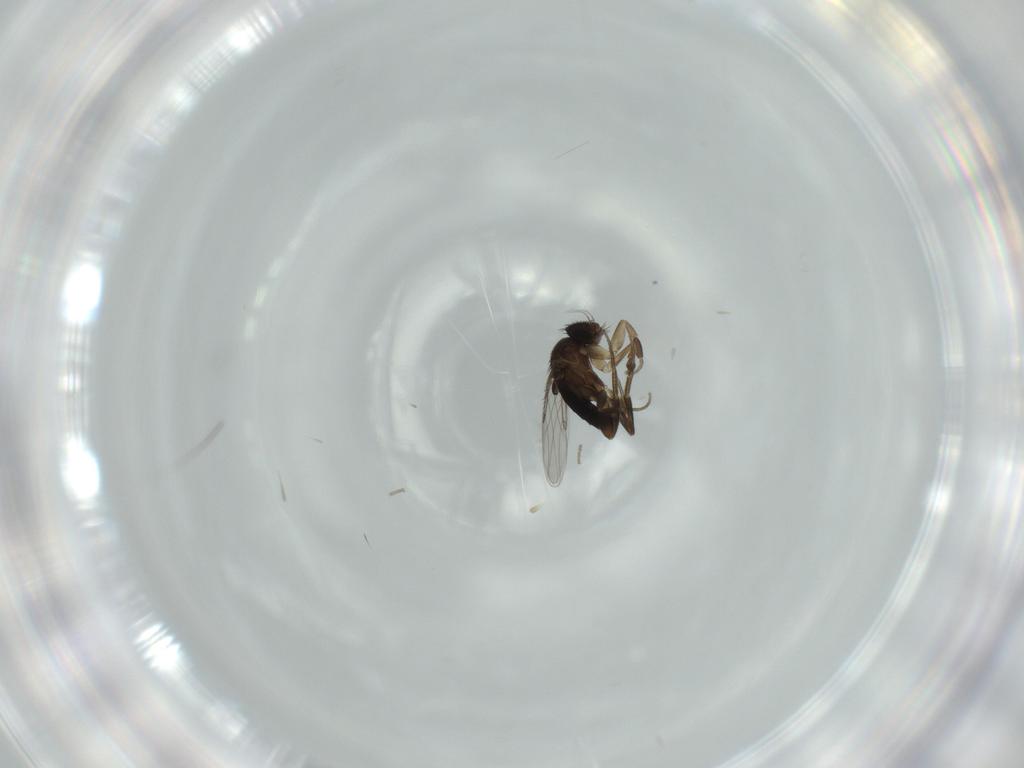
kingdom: Animalia
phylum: Arthropoda
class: Insecta
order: Diptera
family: Phoridae
